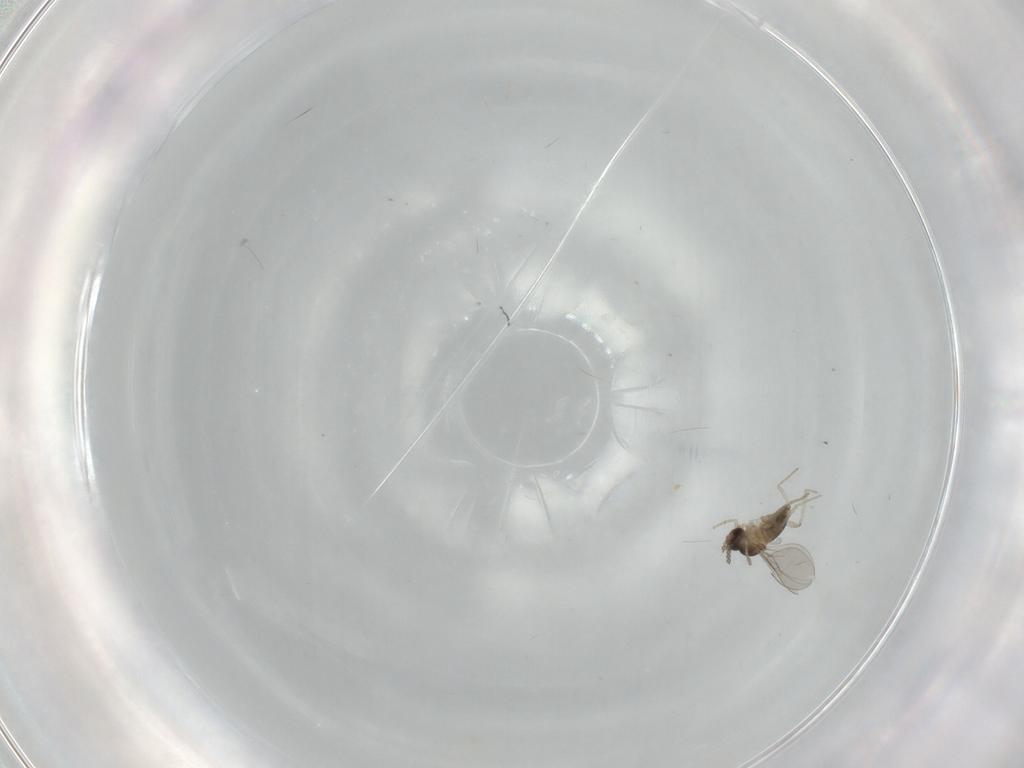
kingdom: Animalia
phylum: Arthropoda
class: Insecta
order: Diptera
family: Cecidomyiidae
